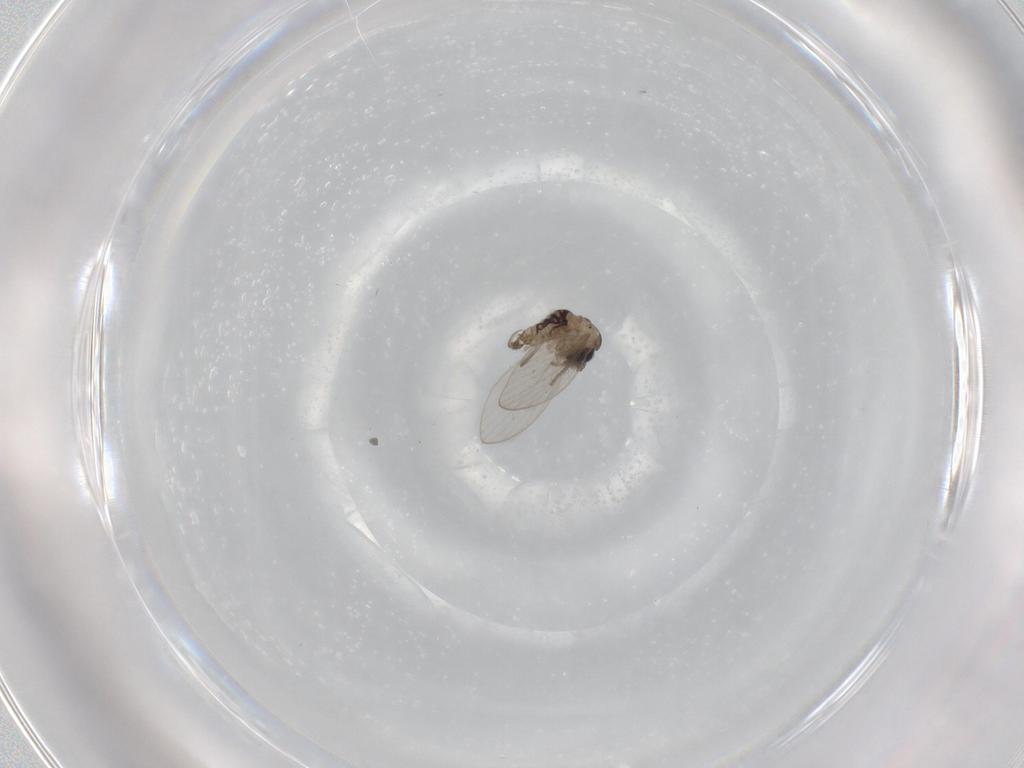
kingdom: Animalia
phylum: Arthropoda
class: Insecta
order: Diptera
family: Psychodidae
